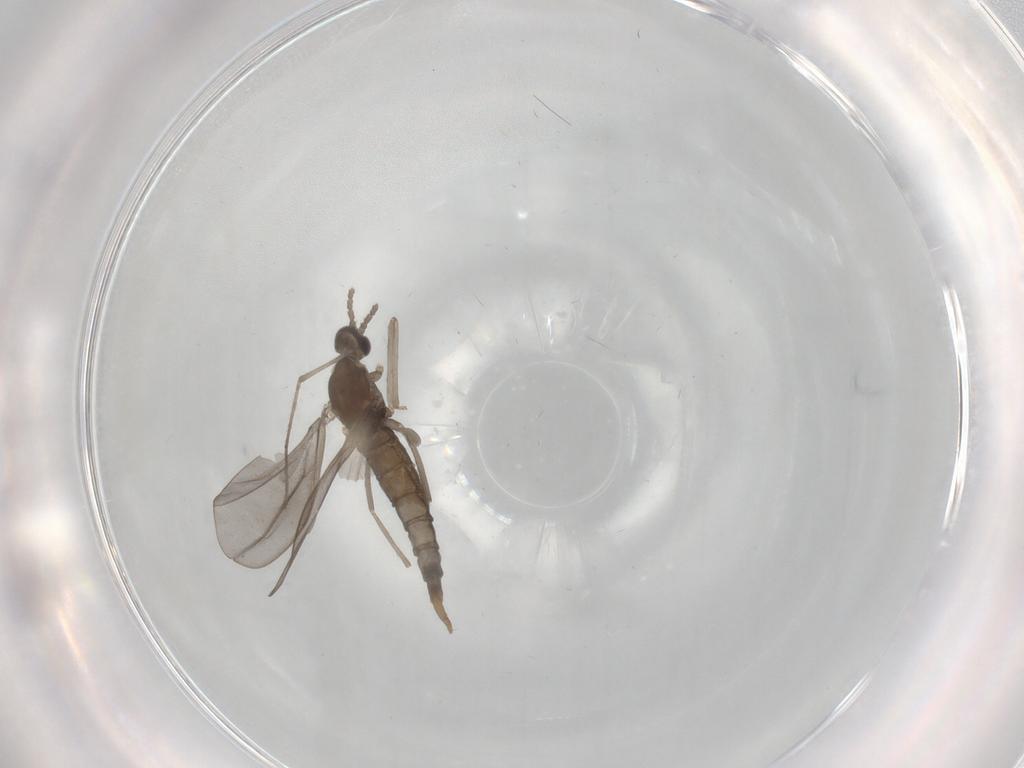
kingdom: Animalia
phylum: Arthropoda
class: Insecta
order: Diptera
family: Cecidomyiidae
